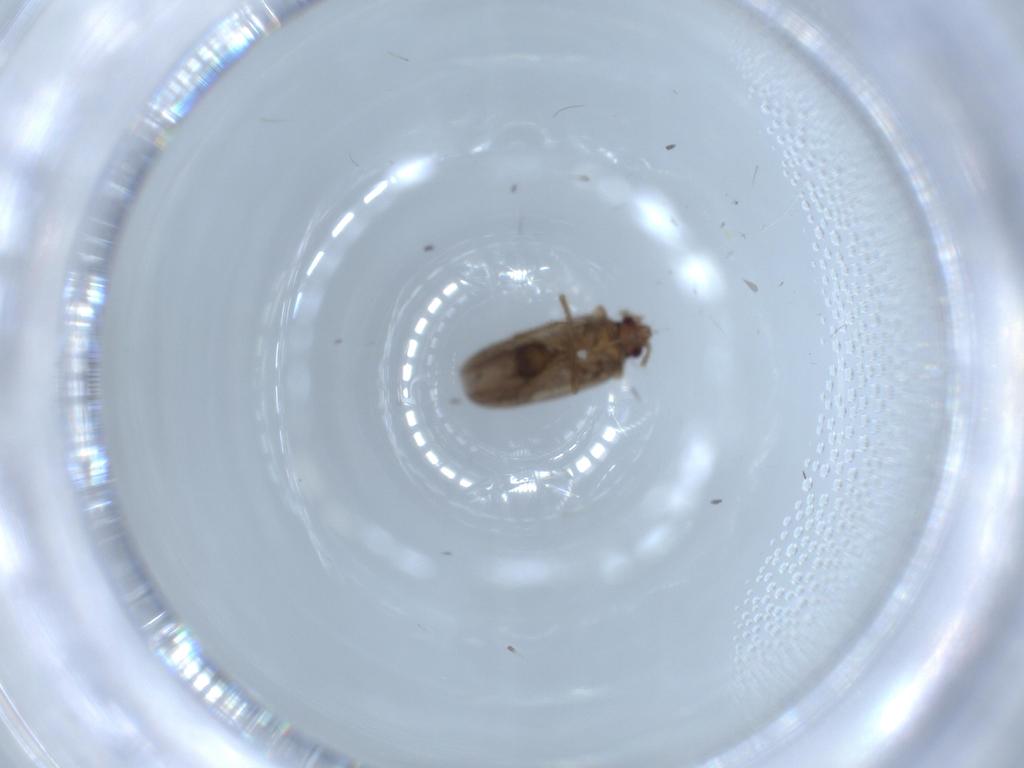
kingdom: Animalia
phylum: Arthropoda
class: Insecta
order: Hemiptera
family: Ceratocombidae
